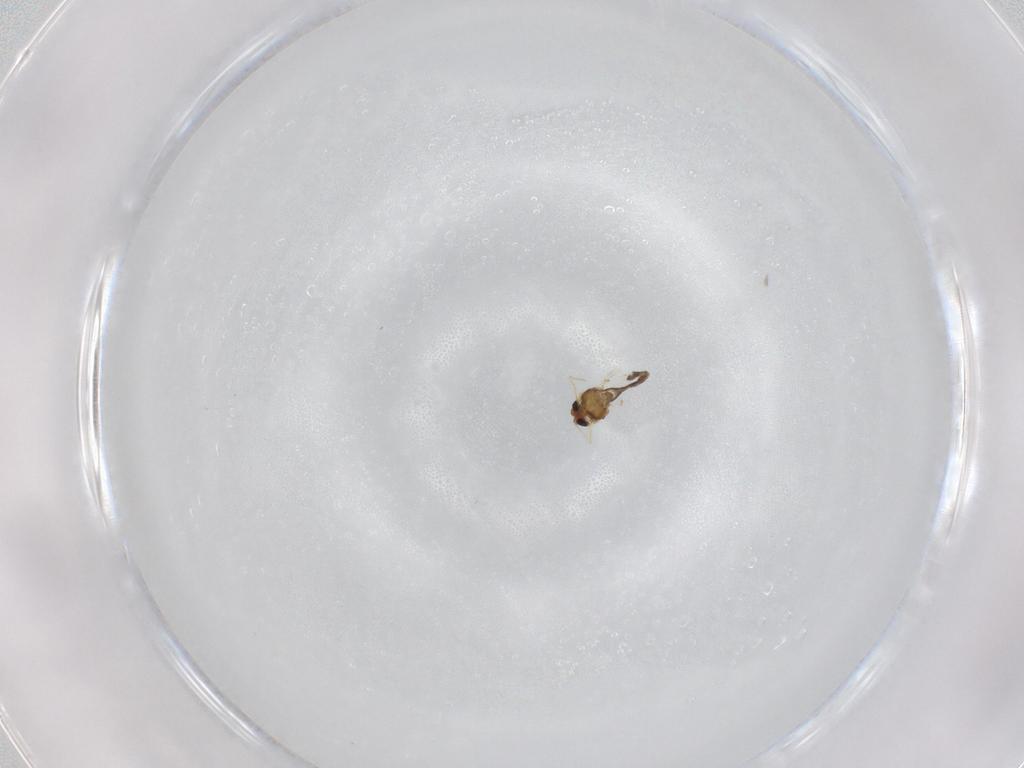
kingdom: Animalia
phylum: Arthropoda
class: Insecta
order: Diptera
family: Chironomidae
